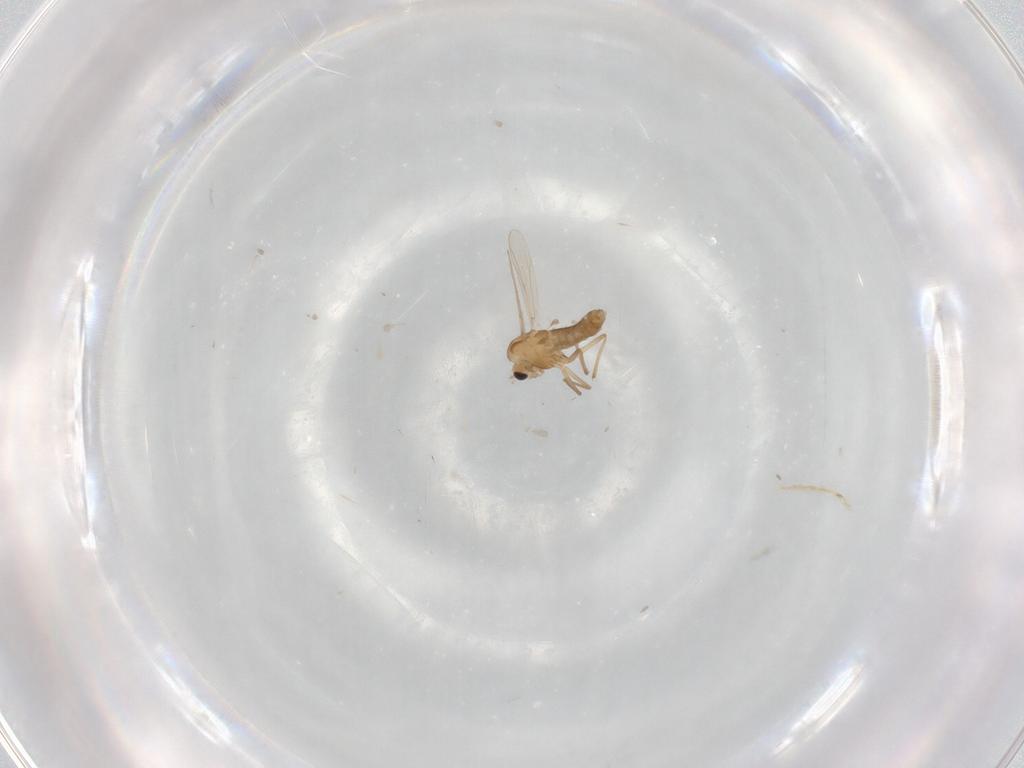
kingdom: Animalia
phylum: Arthropoda
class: Insecta
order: Diptera
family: Chironomidae
